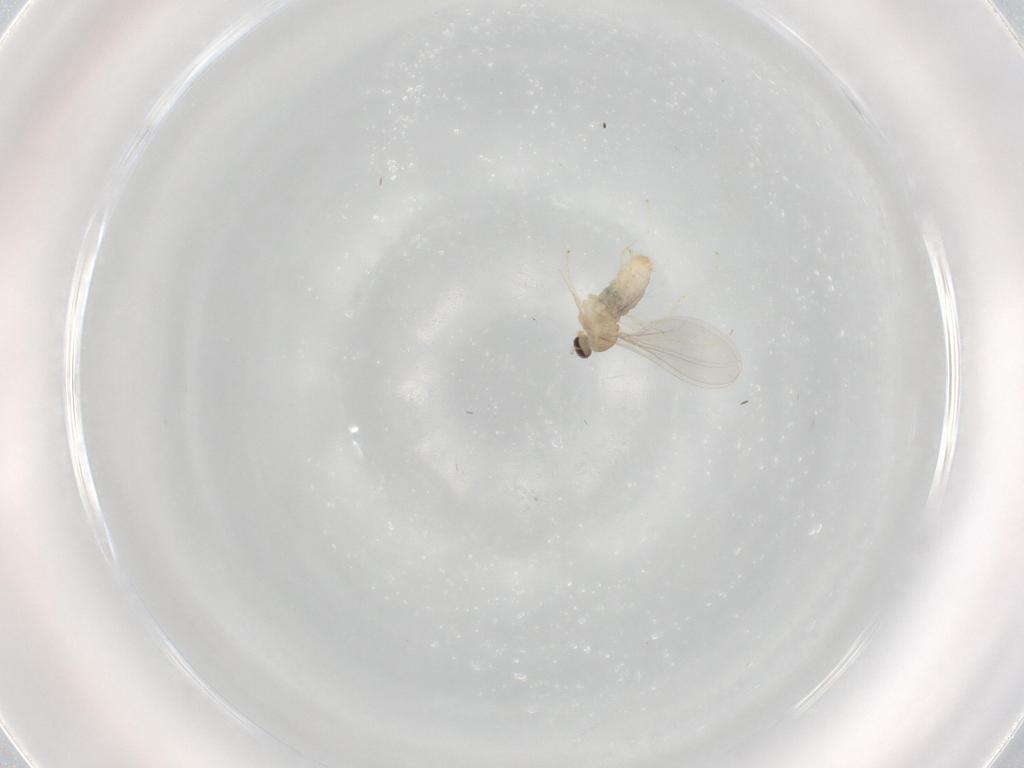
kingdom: Animalia
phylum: Arthropoda
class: Insecta
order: Diptera
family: Cecidomyiidae
